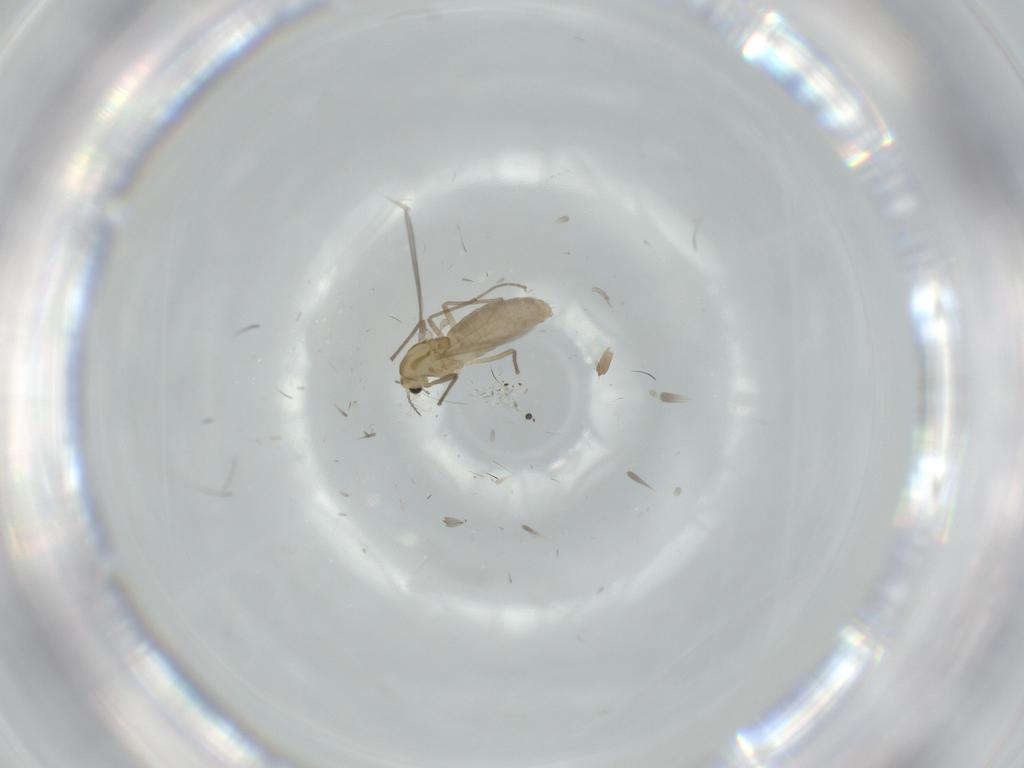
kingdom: Animalia
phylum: Arthropoda
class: Insecta
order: Diptera
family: Chironomidae
